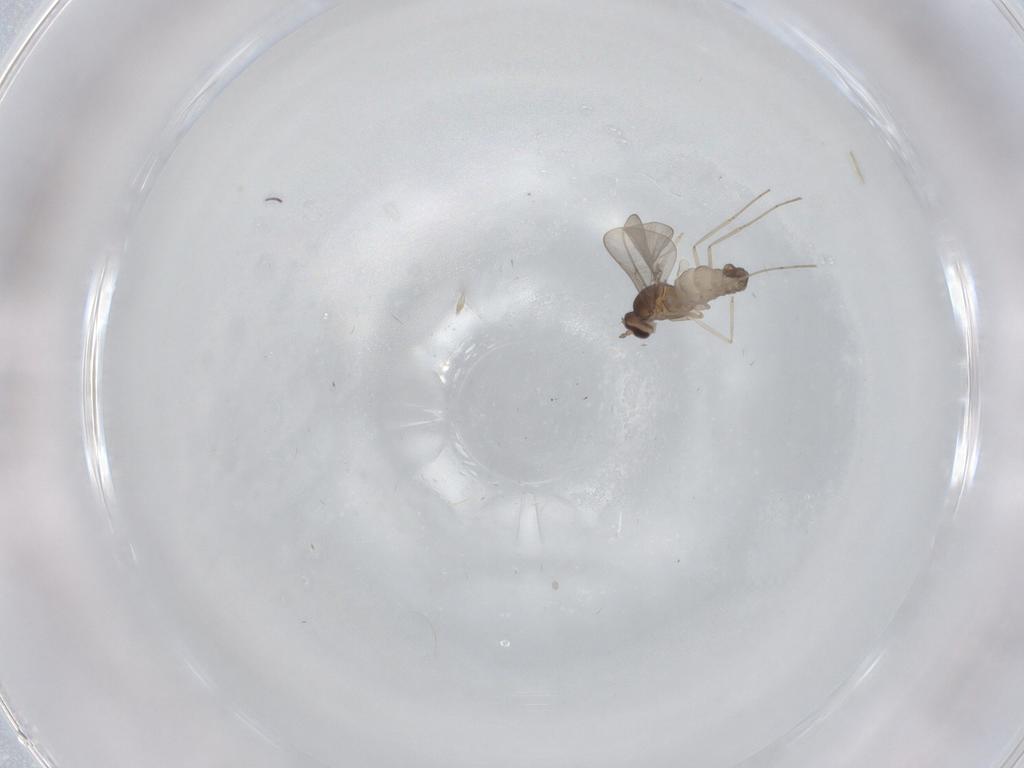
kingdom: Animalia
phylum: Arthropoda
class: Insecta
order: Diptera
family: Cecidomyiidae
